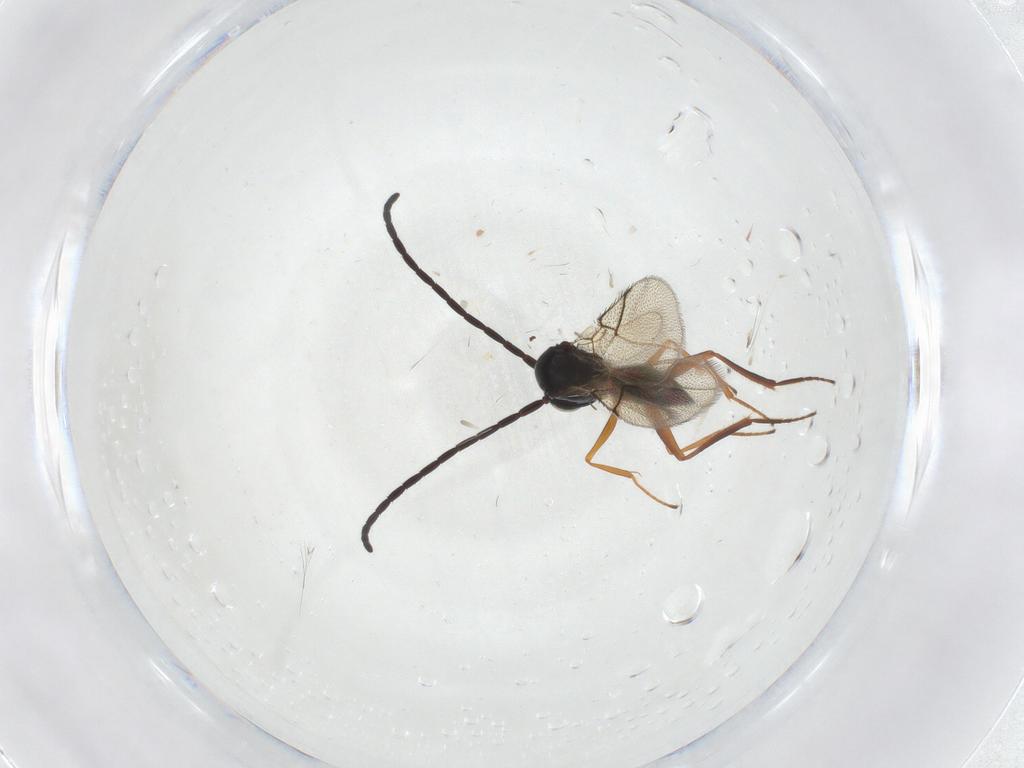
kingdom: Animalia
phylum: Arthropoda
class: Insecta
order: Hymenoptera
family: Figitidae
